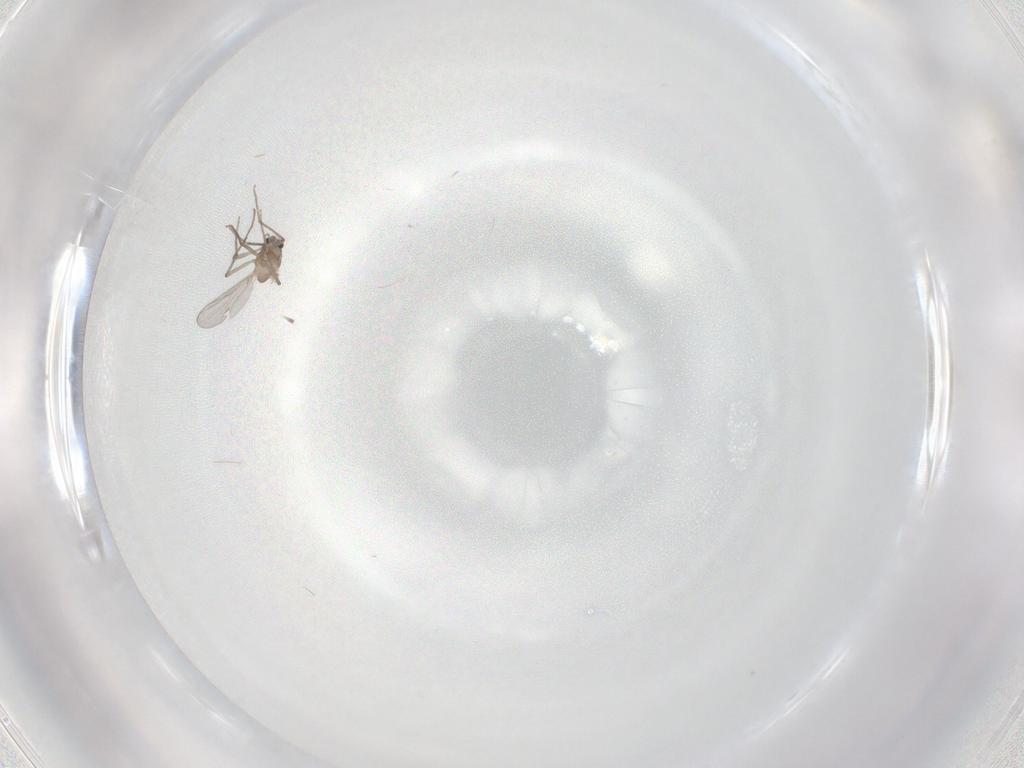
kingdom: Animalia
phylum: Arthropoda
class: Insecta
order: Diptera
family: Chironomidae
